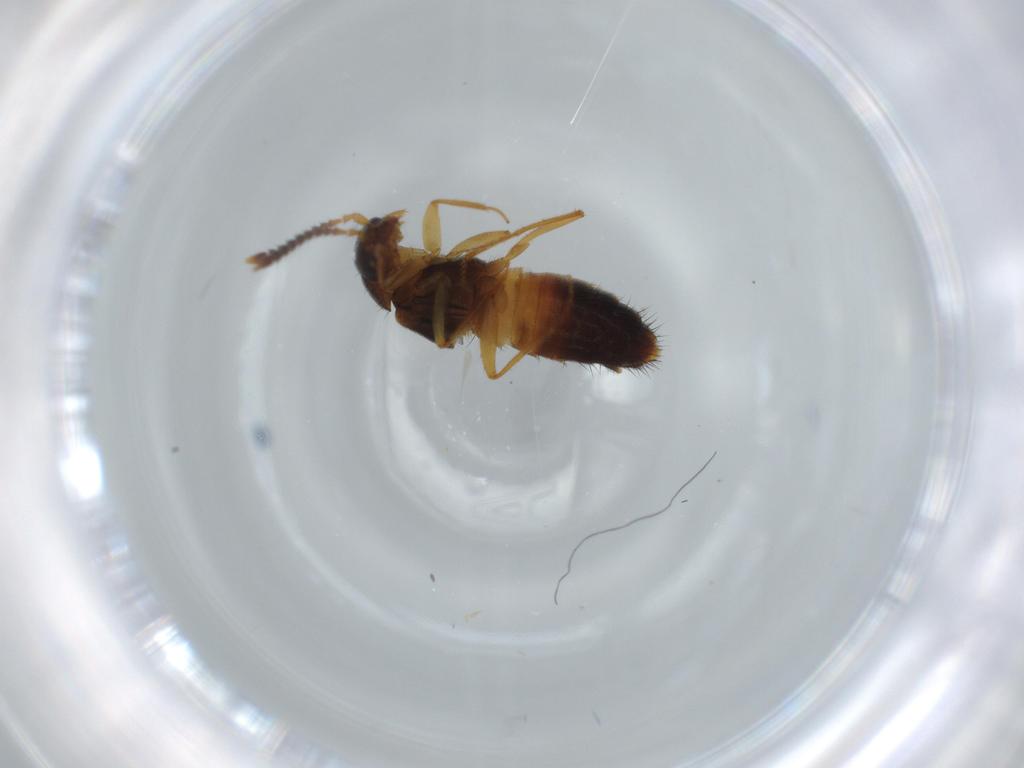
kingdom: Animalia
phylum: Arthropoda
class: Insecta
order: Coleoptera
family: Staphylinidae
